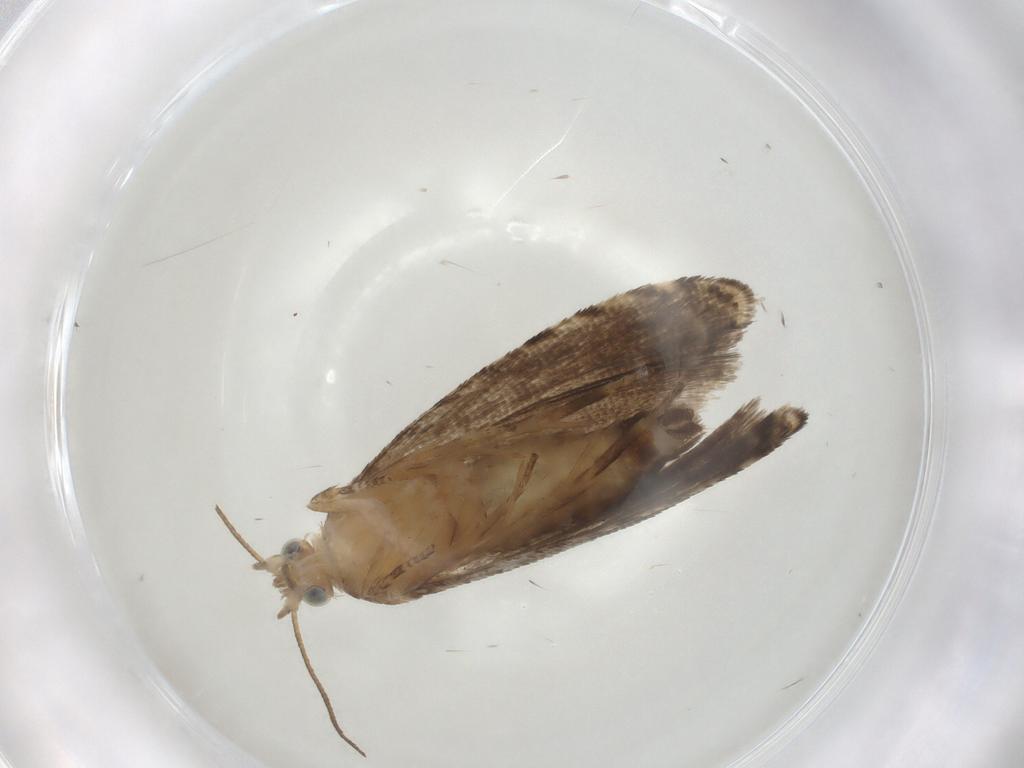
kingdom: Animalia
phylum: Arthropoda
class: Insecta
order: Lepidoptera
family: Tortricidae
